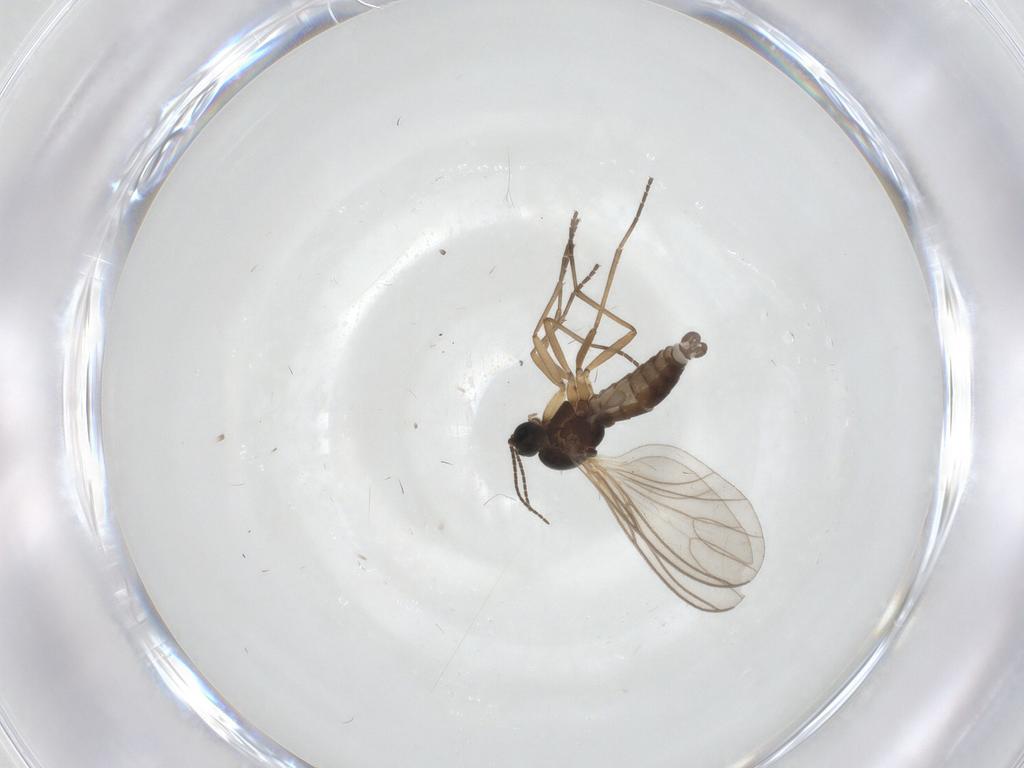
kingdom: Animalia
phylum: Arthropoda
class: Insecta
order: Diptera
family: Sciaridae
